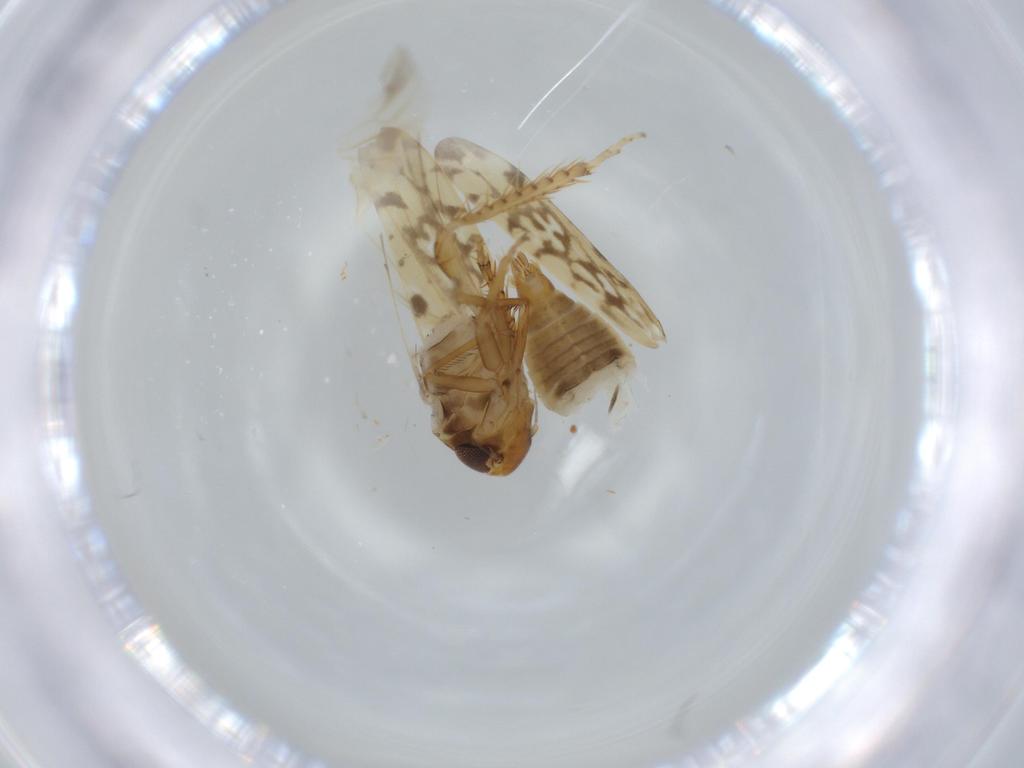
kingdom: Animalia
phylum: Arthropoda
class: Insecta
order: Hemiptera
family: Cicadellidae
